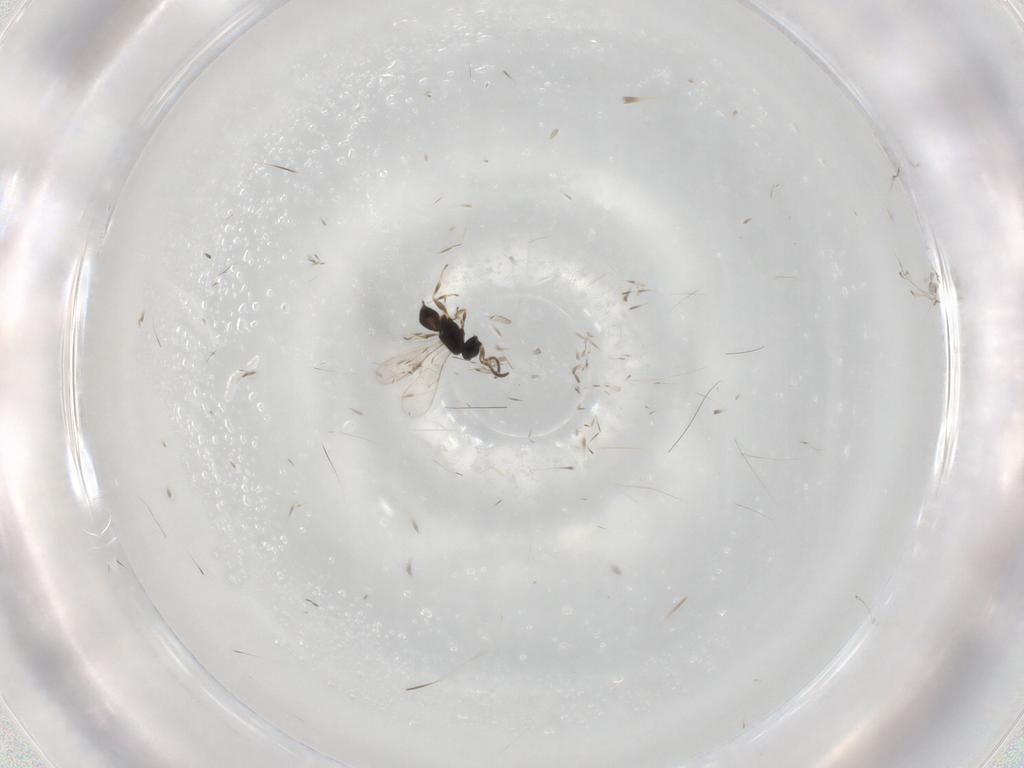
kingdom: Animalia
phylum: Arthropoda
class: Insecta
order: Hymenoptera
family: Scelionidae
